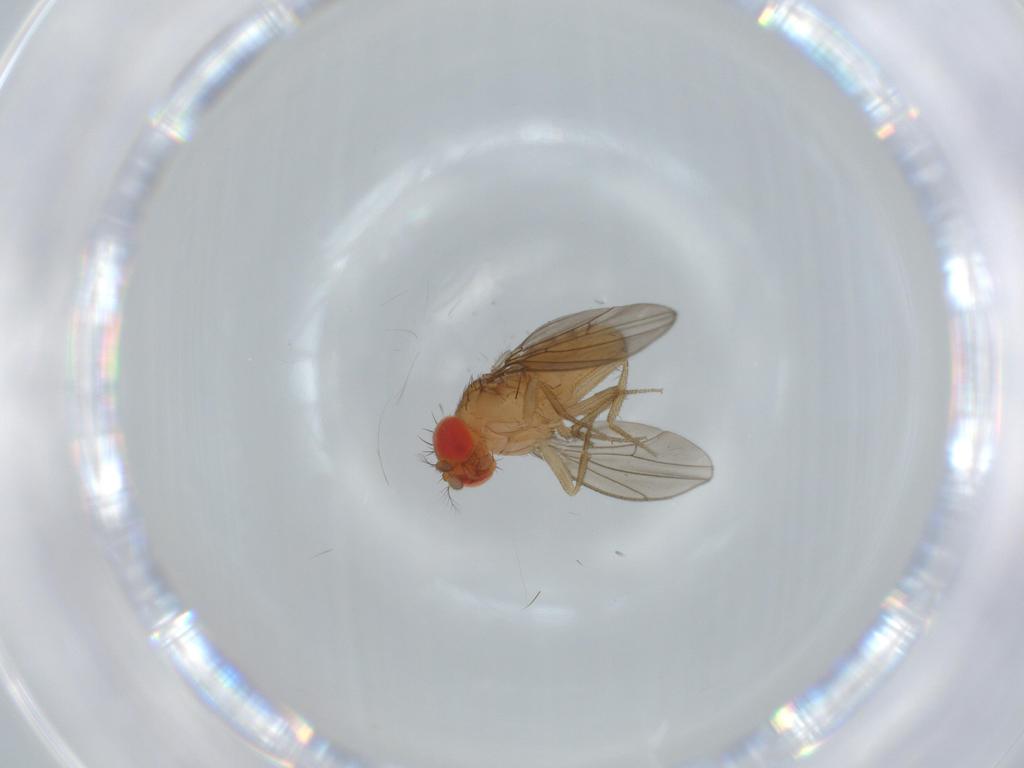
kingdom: Animalia
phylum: Arthropoda
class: Insecta
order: Diptera
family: Drosophilidae
